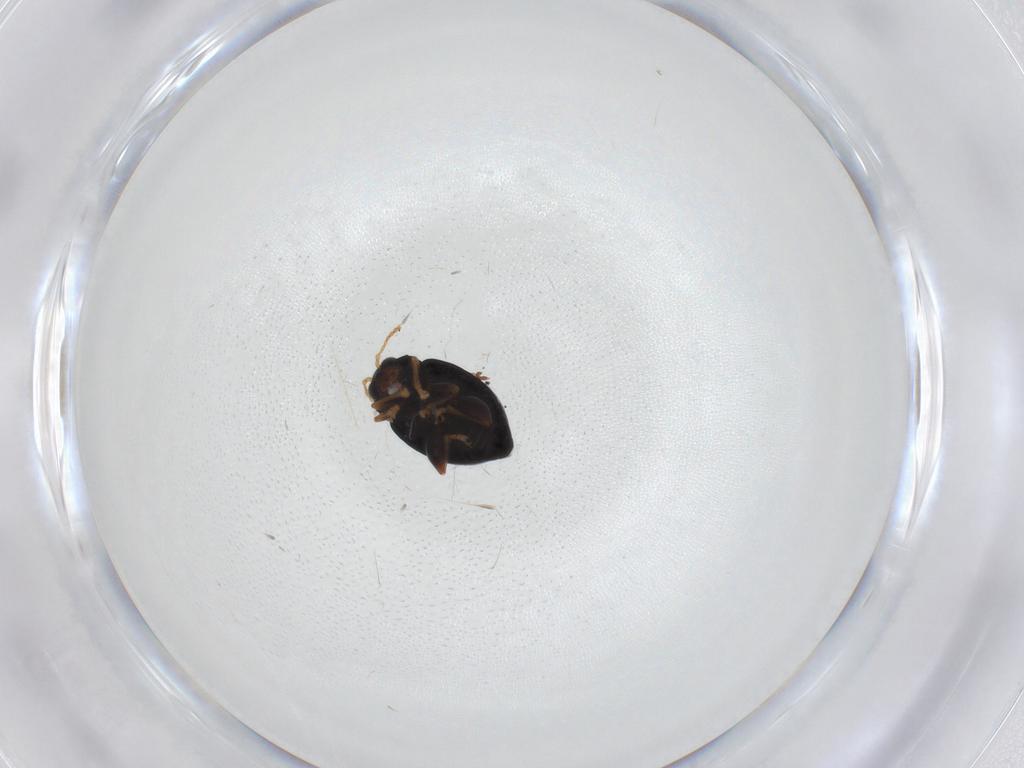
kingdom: Animalia
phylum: Arthropoda
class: Insecta
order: Coleoptera
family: Chrysomelidae
